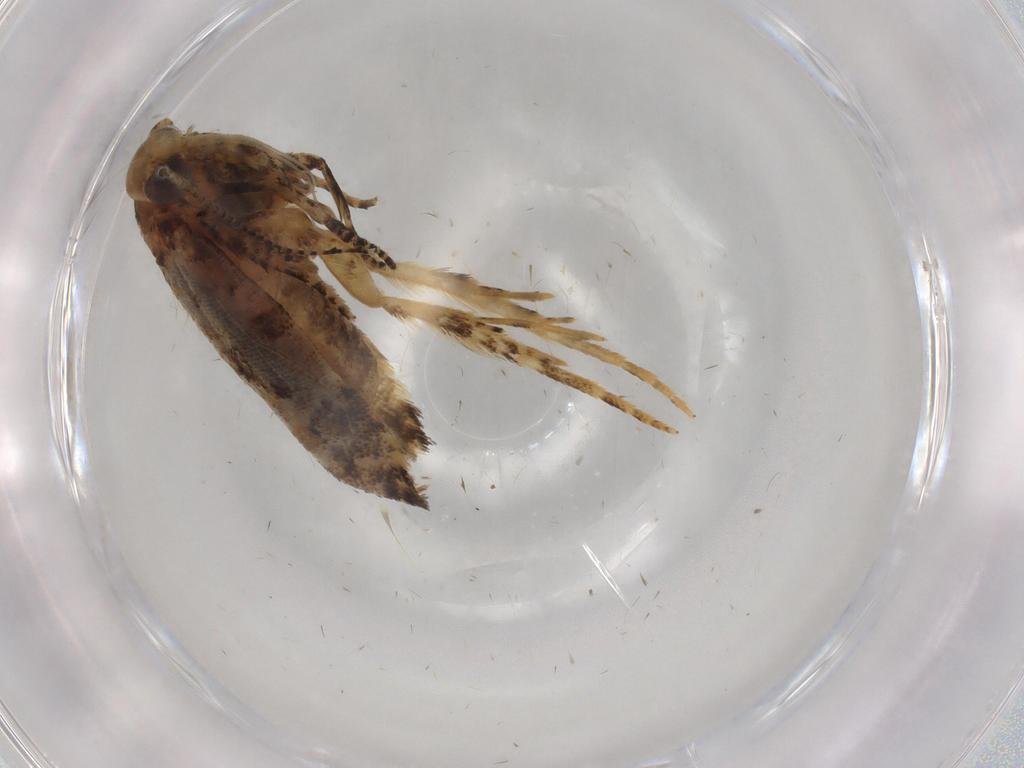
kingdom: Animalia
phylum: Arthropoda
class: Insecta
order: Lepidoptera
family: Gelechiidae
